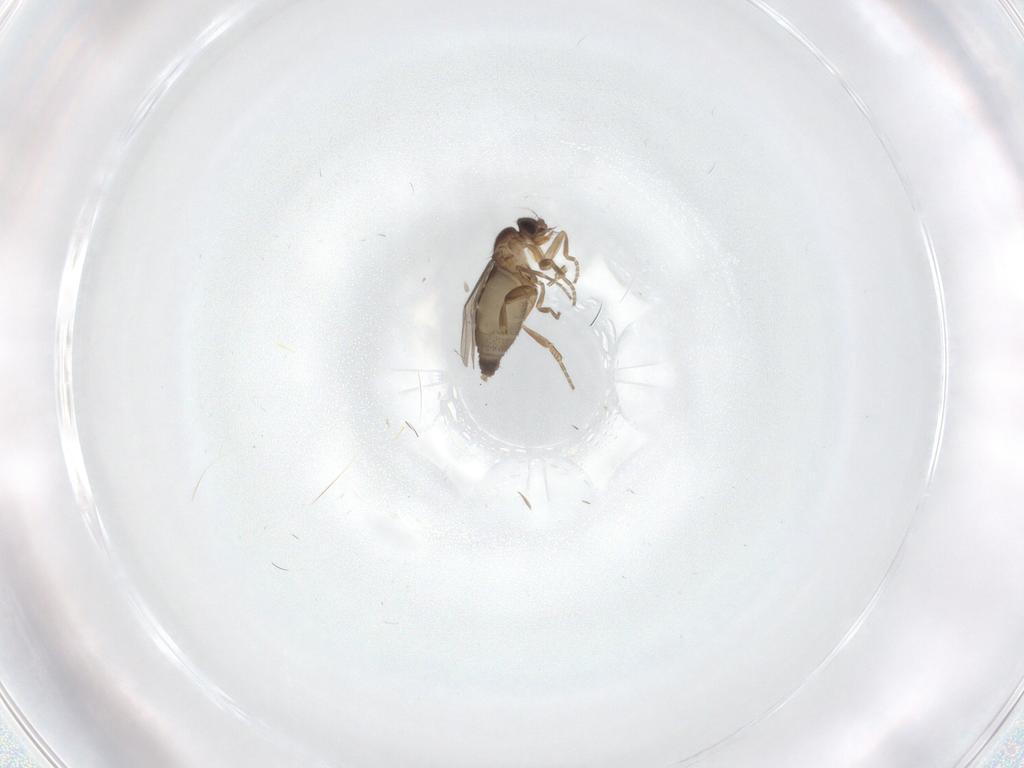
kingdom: Animalia
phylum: Arthropoda
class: Insecta
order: Diptera
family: Phoridae
